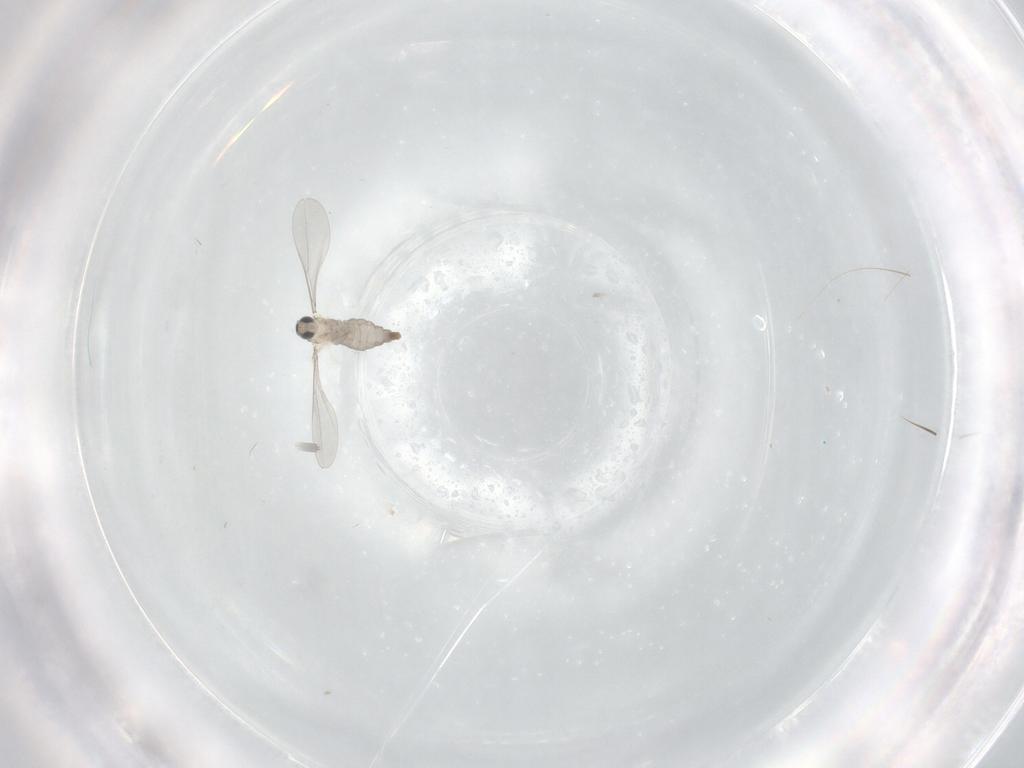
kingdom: Animalia
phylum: Arthropoda
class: Insecta
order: Diptera
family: Cecidomyiidae
